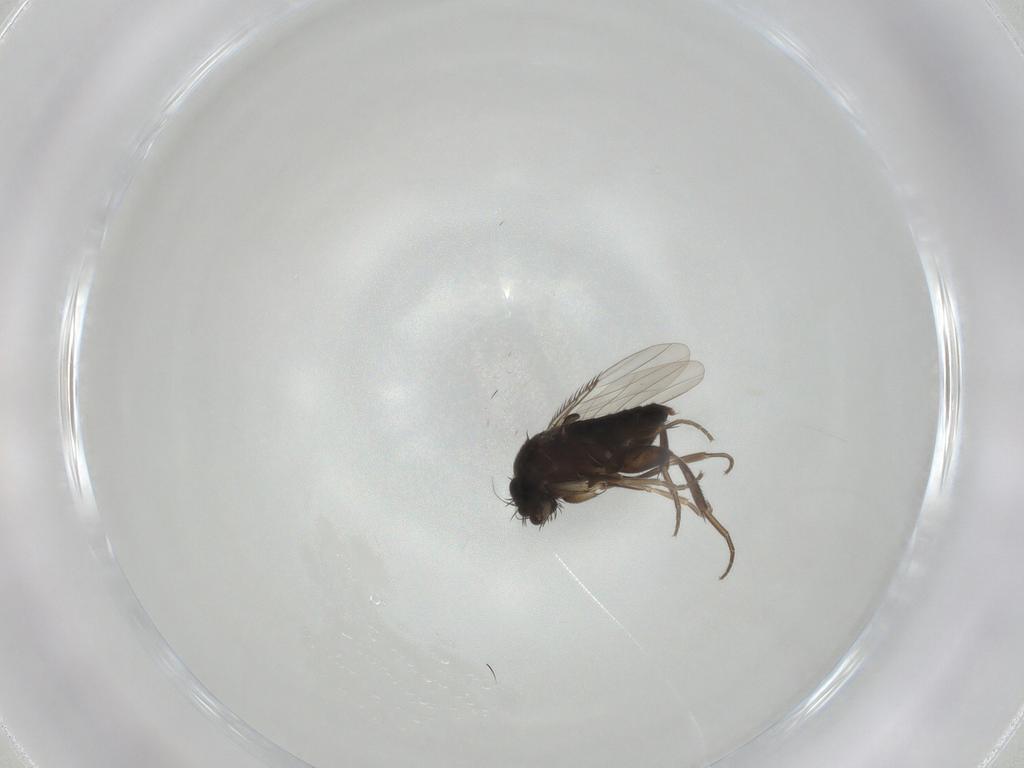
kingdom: Animalia
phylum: Arthropoda
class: Insecta
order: Diptera
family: Phoridae
